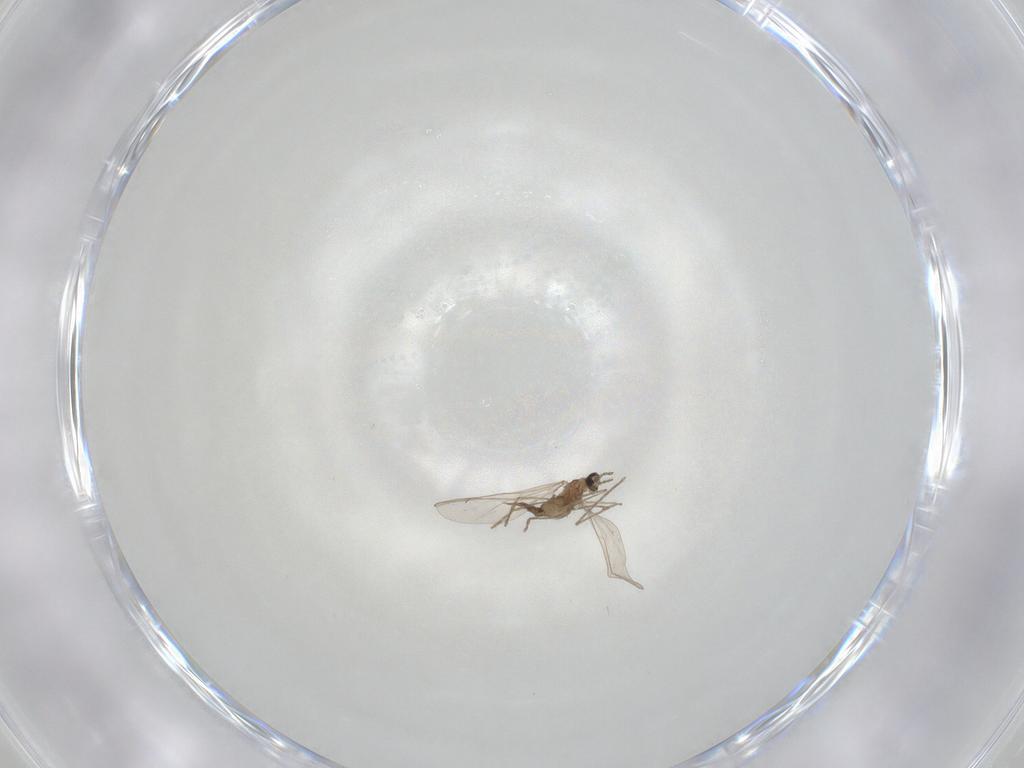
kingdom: Animalia
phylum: Arthropoda
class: Insecta
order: Diptera
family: Cecidomyiidae
